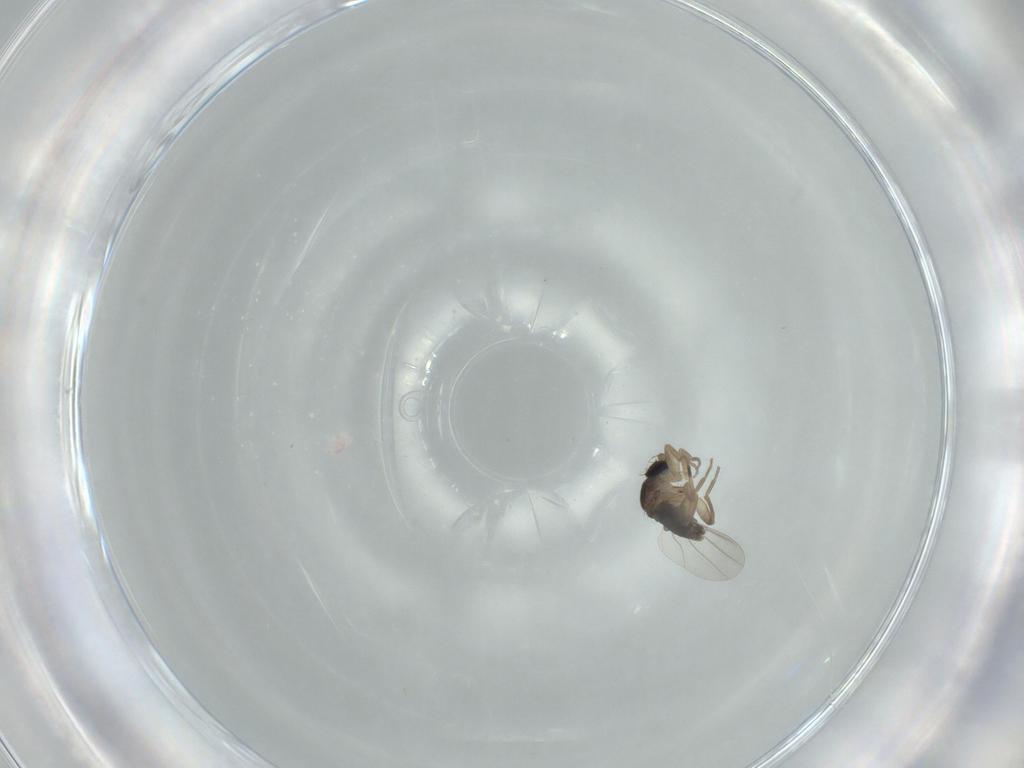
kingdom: Animalia
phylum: Arthropoda
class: Insecta
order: Diptera
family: Phoridae
